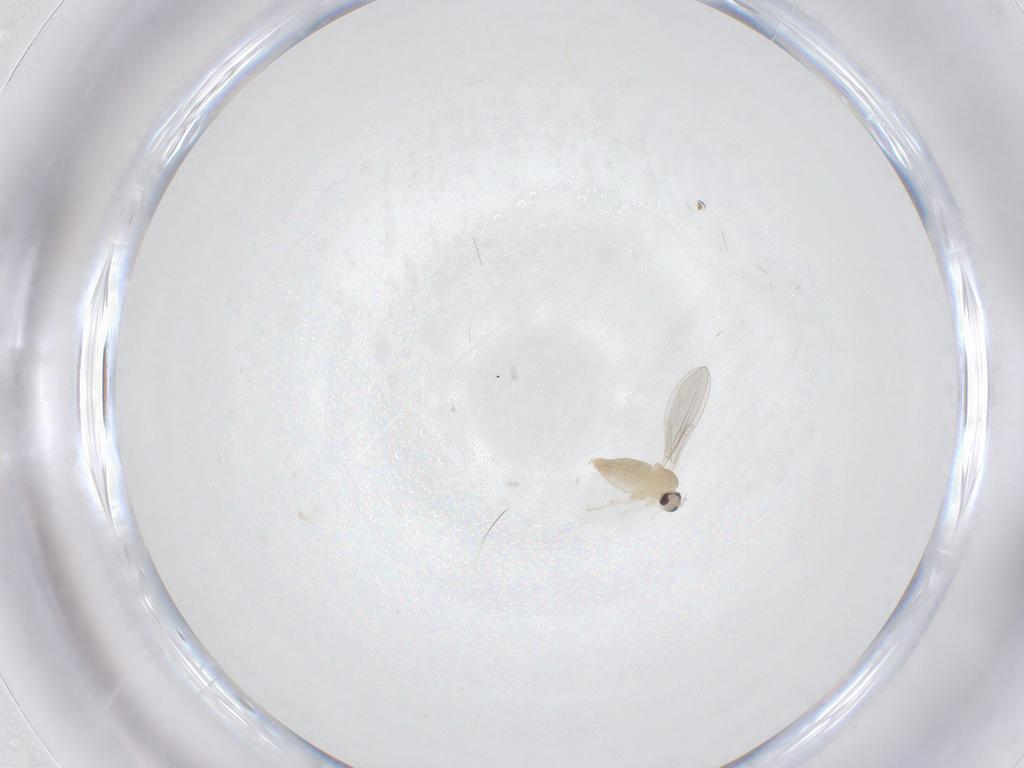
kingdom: Animalia
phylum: Arthropoda
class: Insecta
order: Diptera
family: Cecidomyiidae
